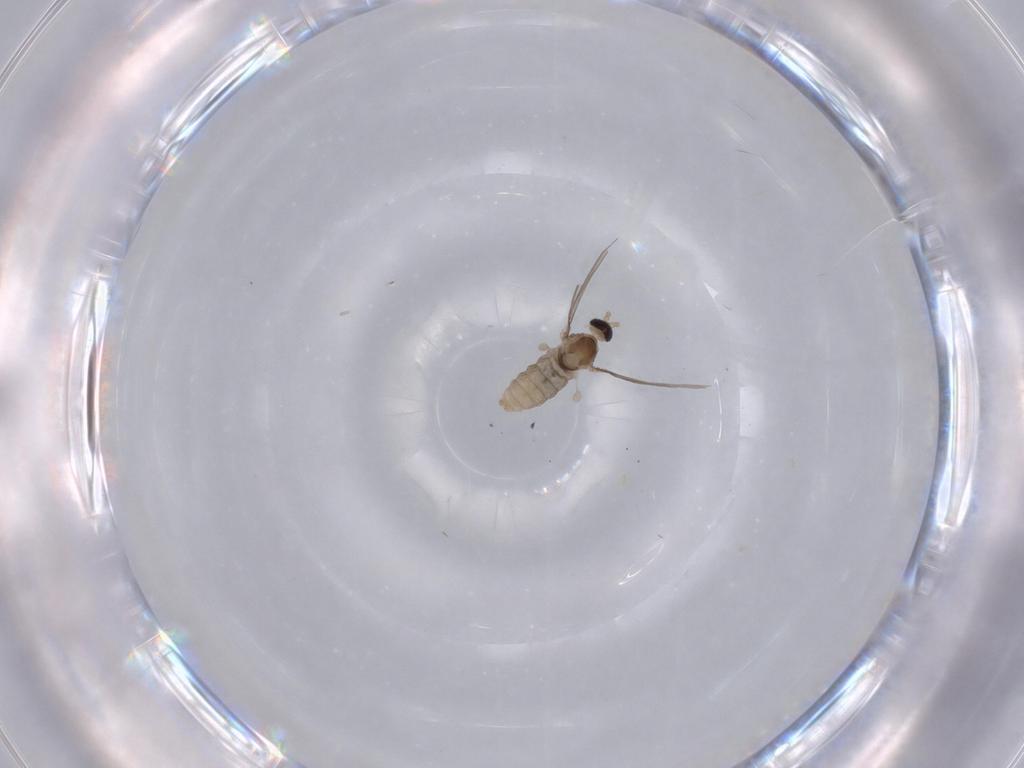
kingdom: Animalia
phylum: Arthropoda
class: Insecta
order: Diptera
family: Cecidomyiidae
